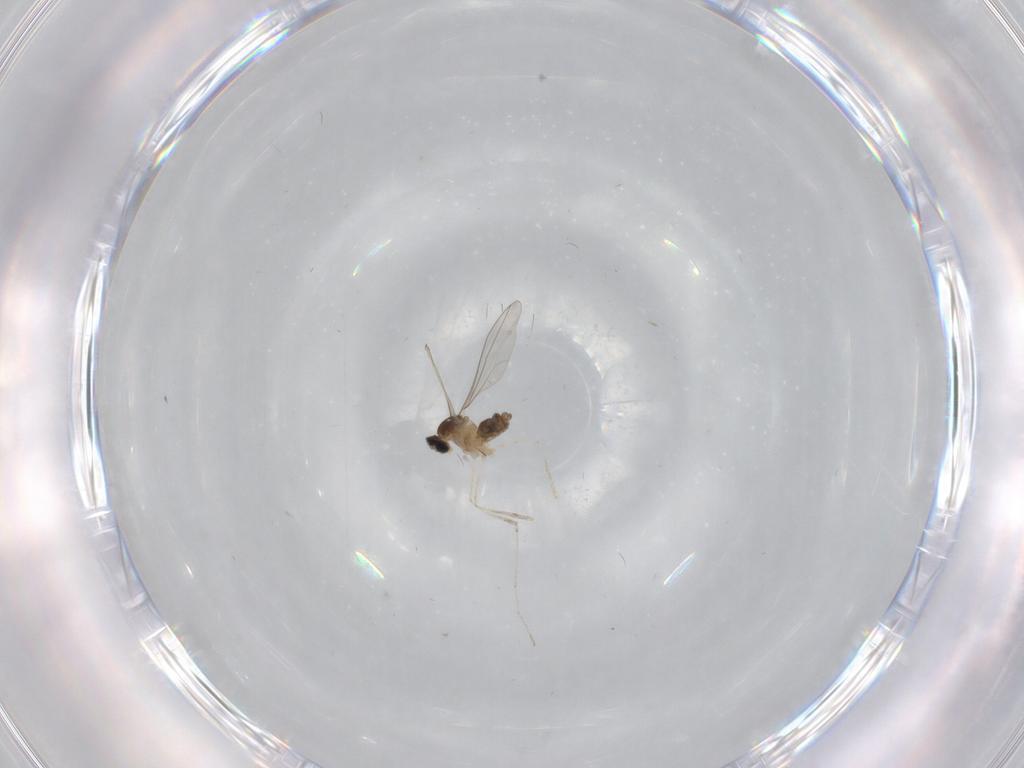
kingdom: Animalia
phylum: Arthropoda
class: Insecta
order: Diptera
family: Cecidomyiidae
